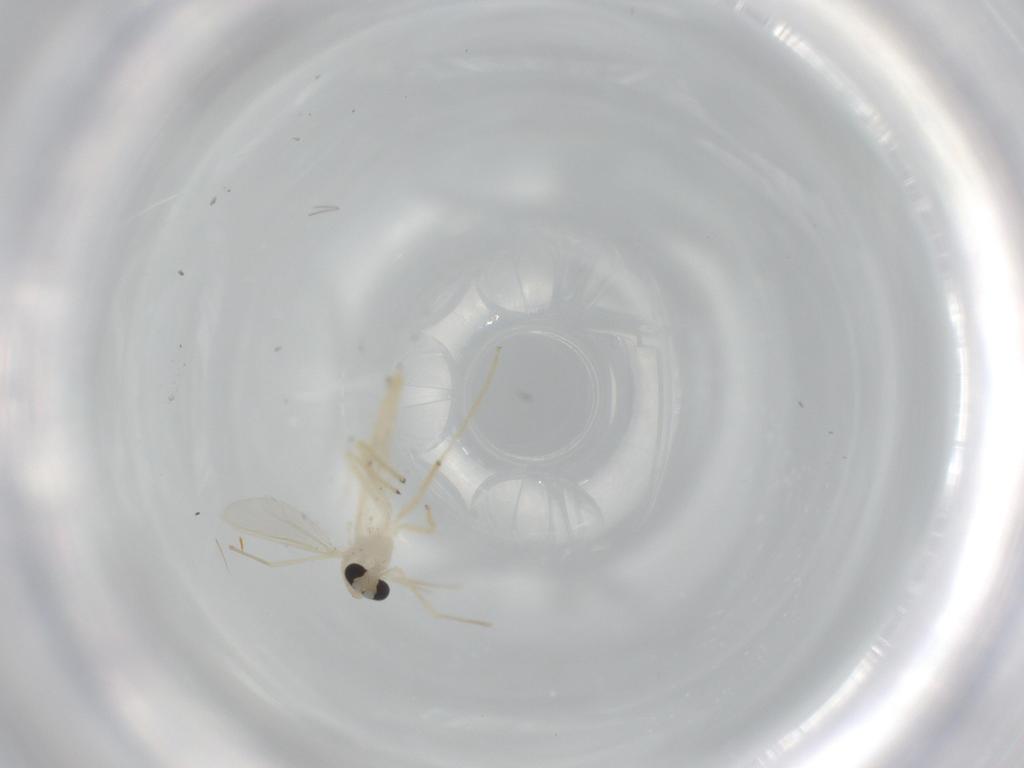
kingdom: Animalia
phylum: Arthropoda
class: Insecta
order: Diptera
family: Chironomidae
